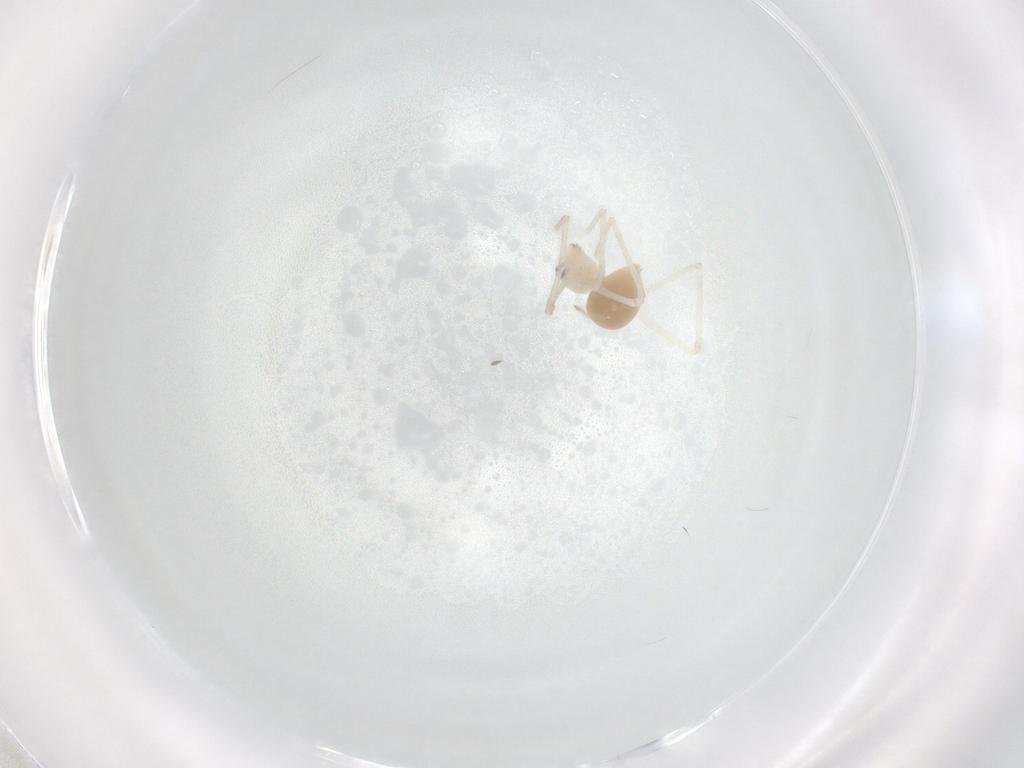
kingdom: Animalia
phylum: Arthropoda
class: Arachnida
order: Araneae
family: Pholcidae
